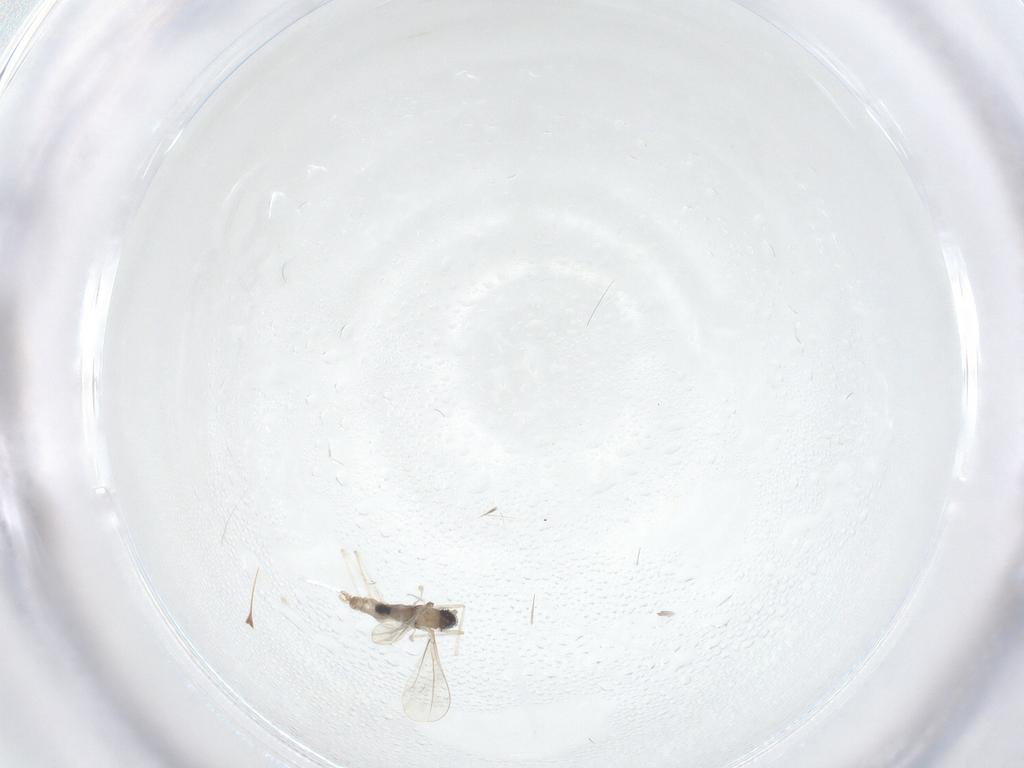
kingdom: Animalia
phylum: Arthropoda
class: Insecta
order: Diptera
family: Cecidomyiidae
